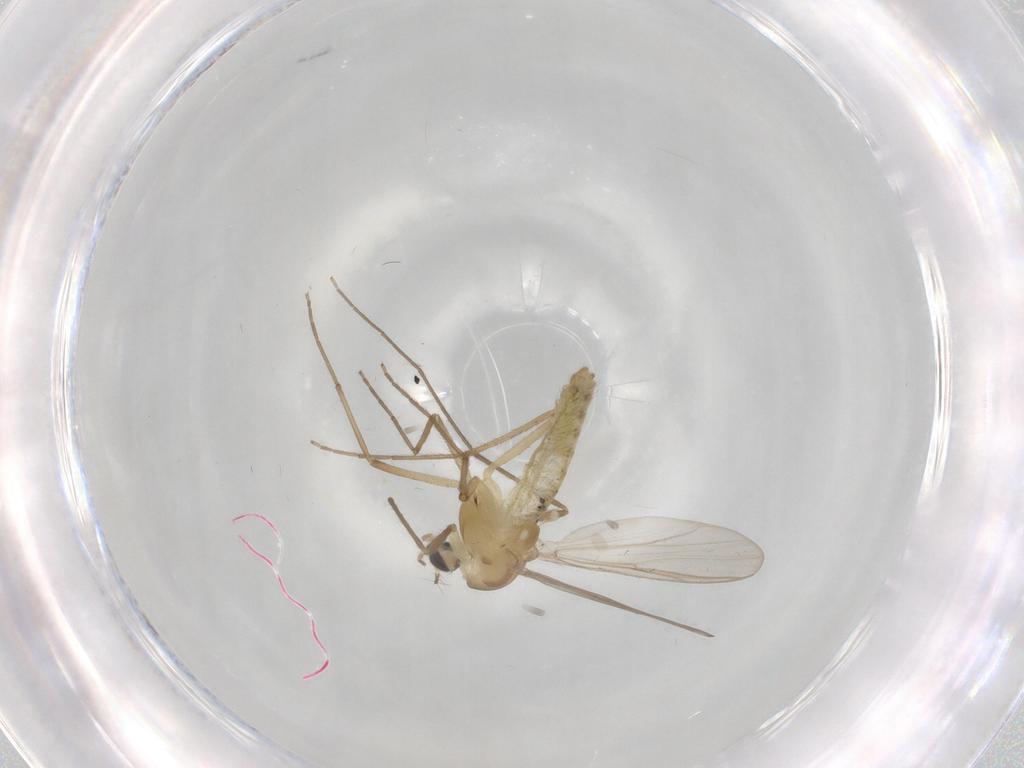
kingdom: Animalia
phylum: Arthropoda
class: Insecta
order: Diptera
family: Chironomidae
